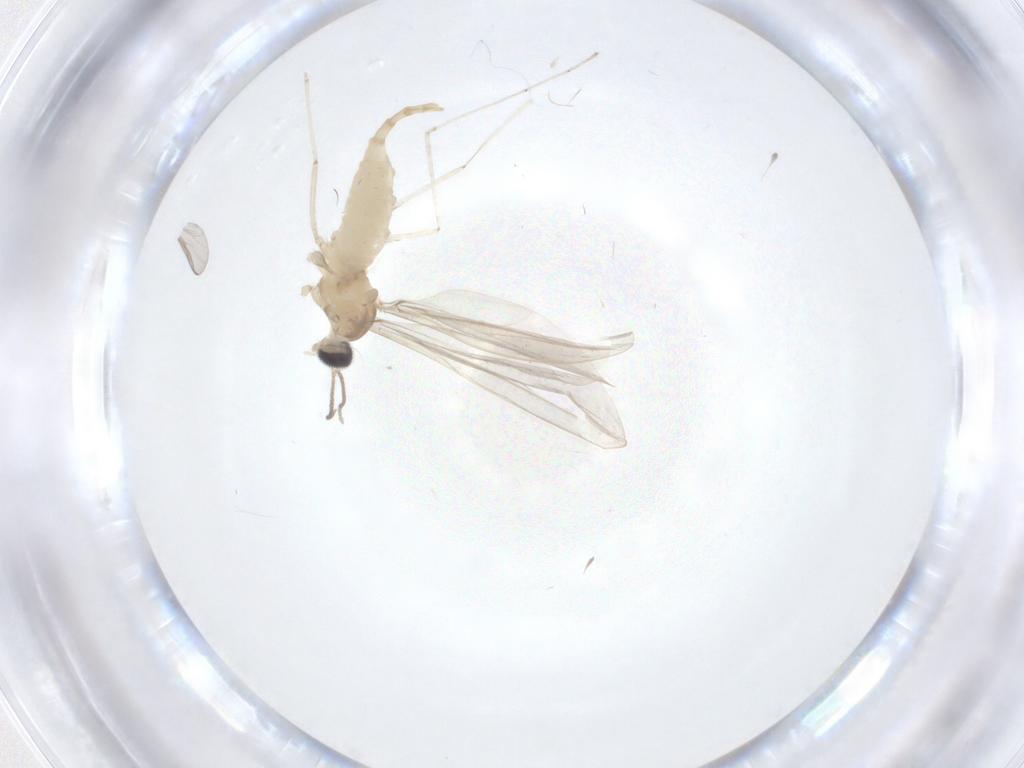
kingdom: Animalia
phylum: Arthropoda
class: Insecta
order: Diptera
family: Cecidomyiidae
